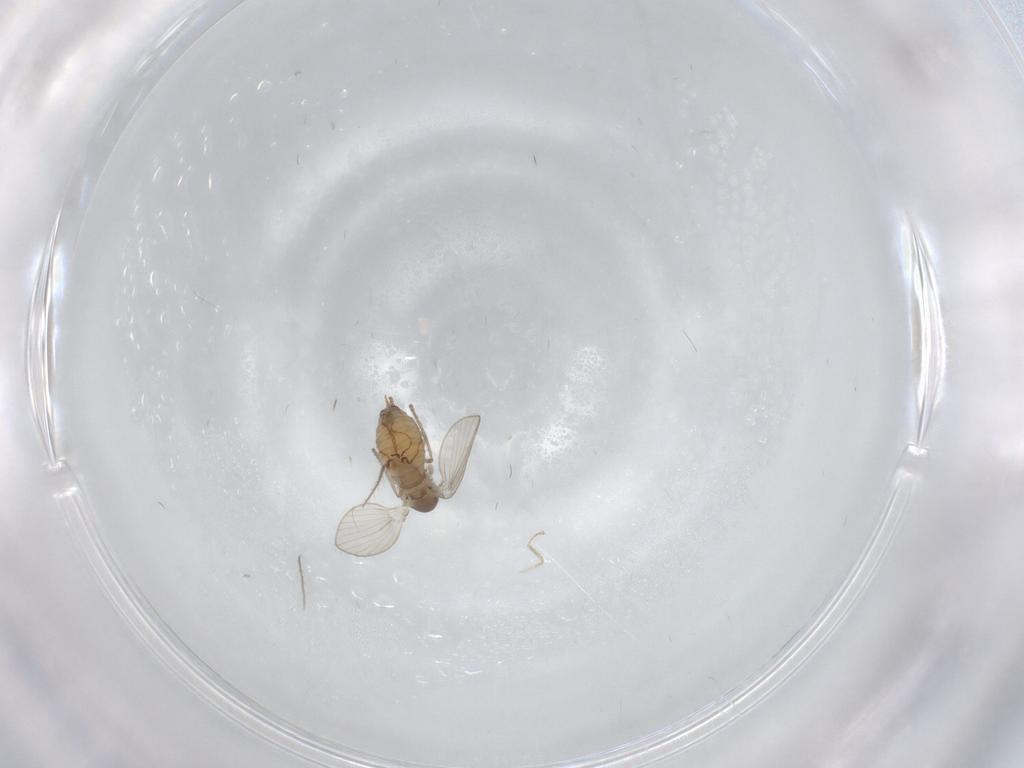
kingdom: Animalia
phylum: Arthropoda
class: Insecta
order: Diptera
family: Psychodidae
